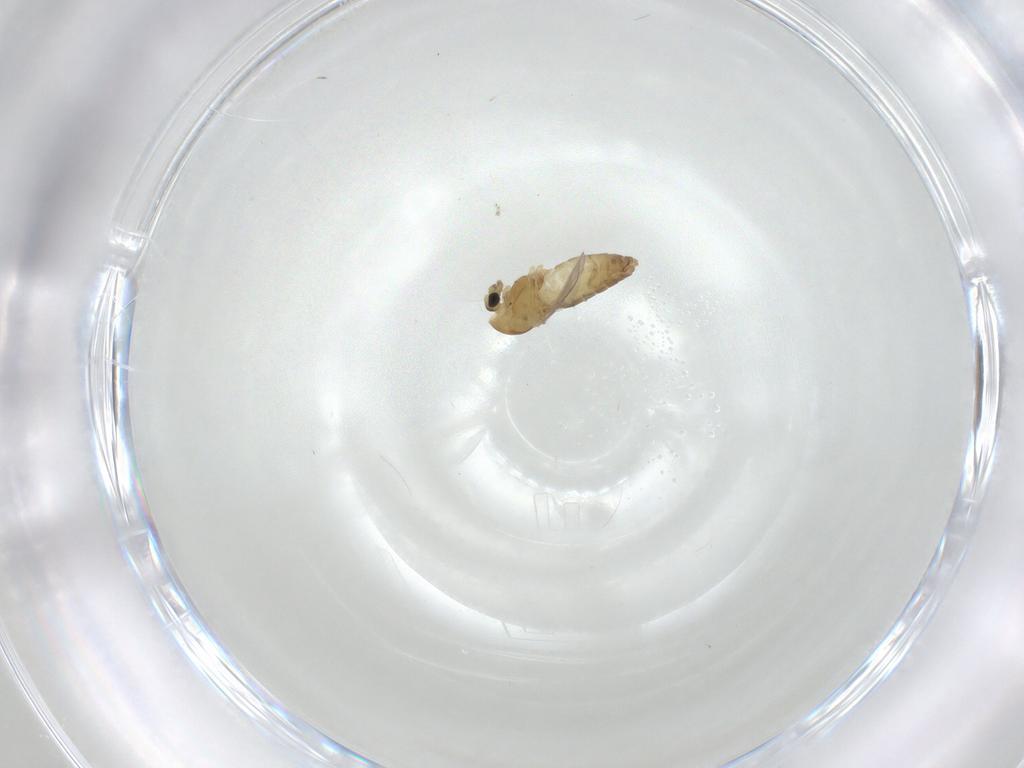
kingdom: Animalia
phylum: Arthropoda
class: Insecta
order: Diptera
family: Chironomidae
